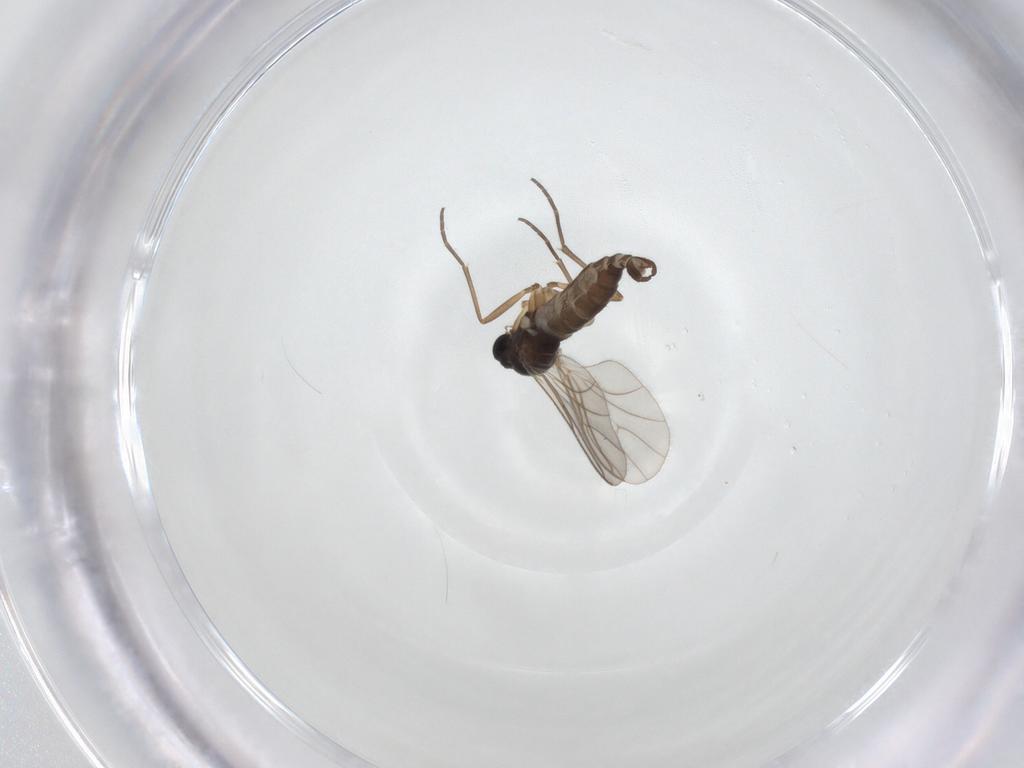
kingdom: Animalia
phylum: Arthropoda
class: Insecta
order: Diptera
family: Sciaridae
